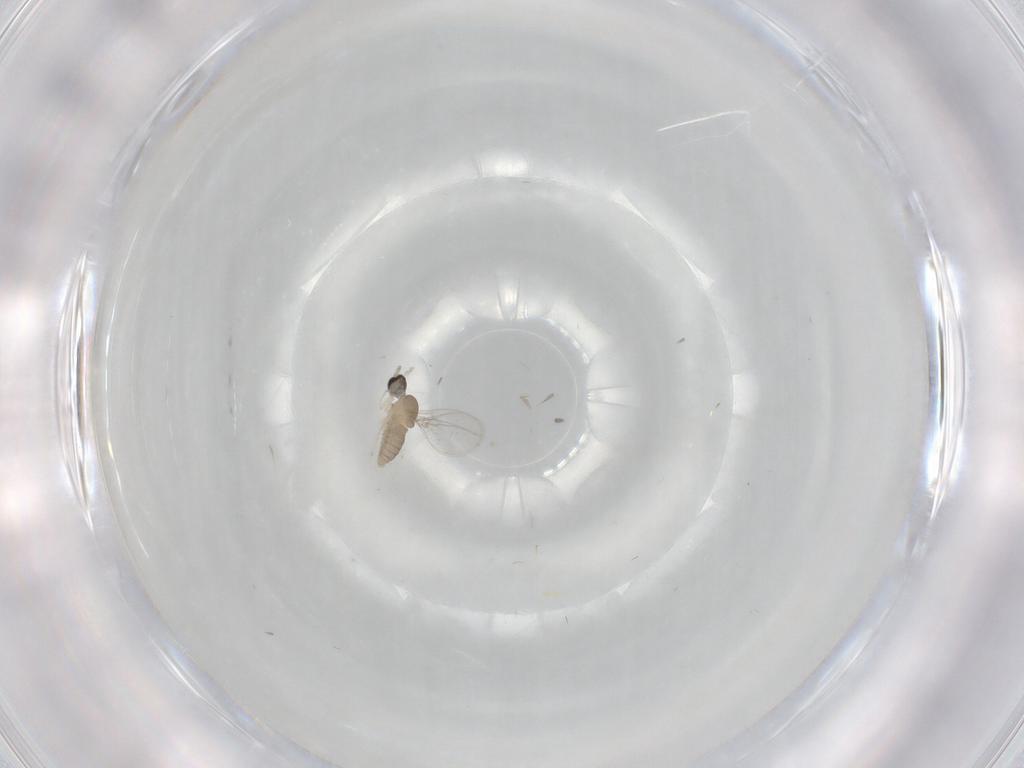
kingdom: Animalia
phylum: Arthropoda
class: Insecta
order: Diptera
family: Cecidomyiidae
